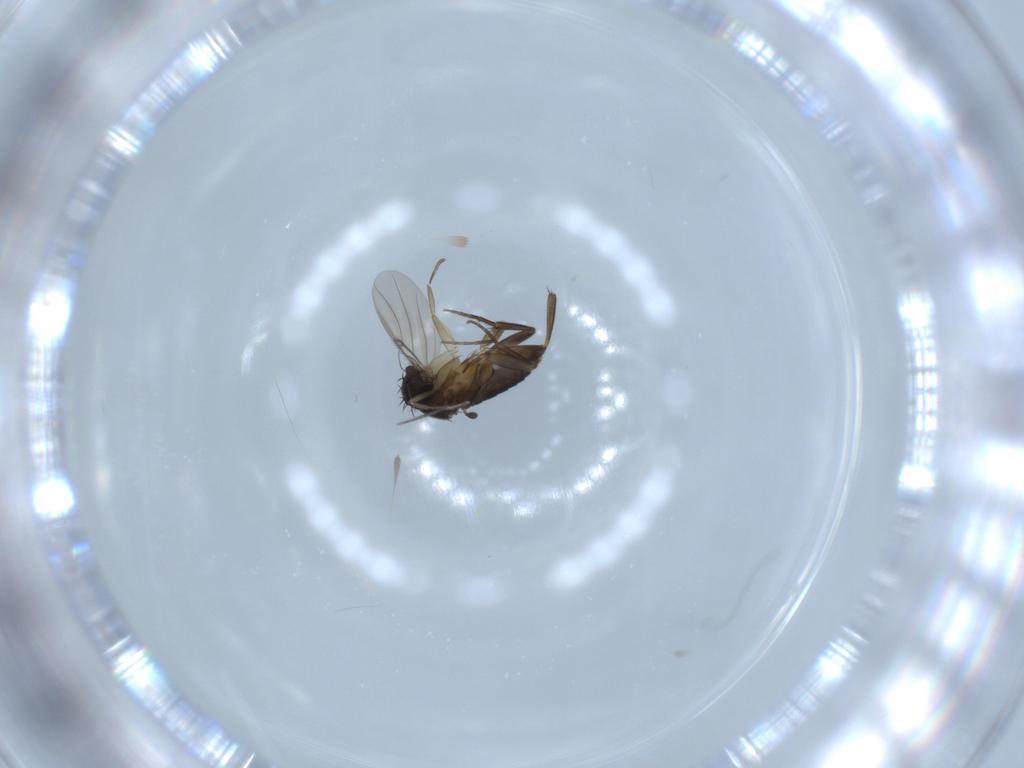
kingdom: Animalia
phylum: Arthropoda
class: Insecta
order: Diptera
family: Phoridae
